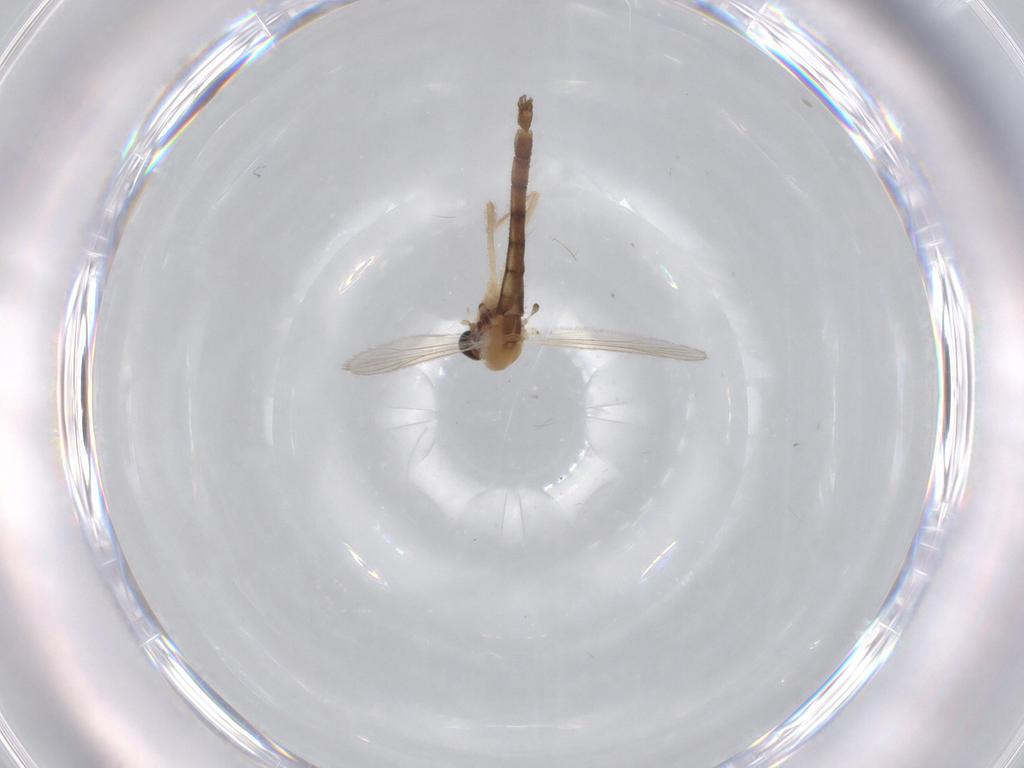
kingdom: Animalia
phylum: Arthropoda
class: Insecta
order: Diptera
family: Chironomidae
